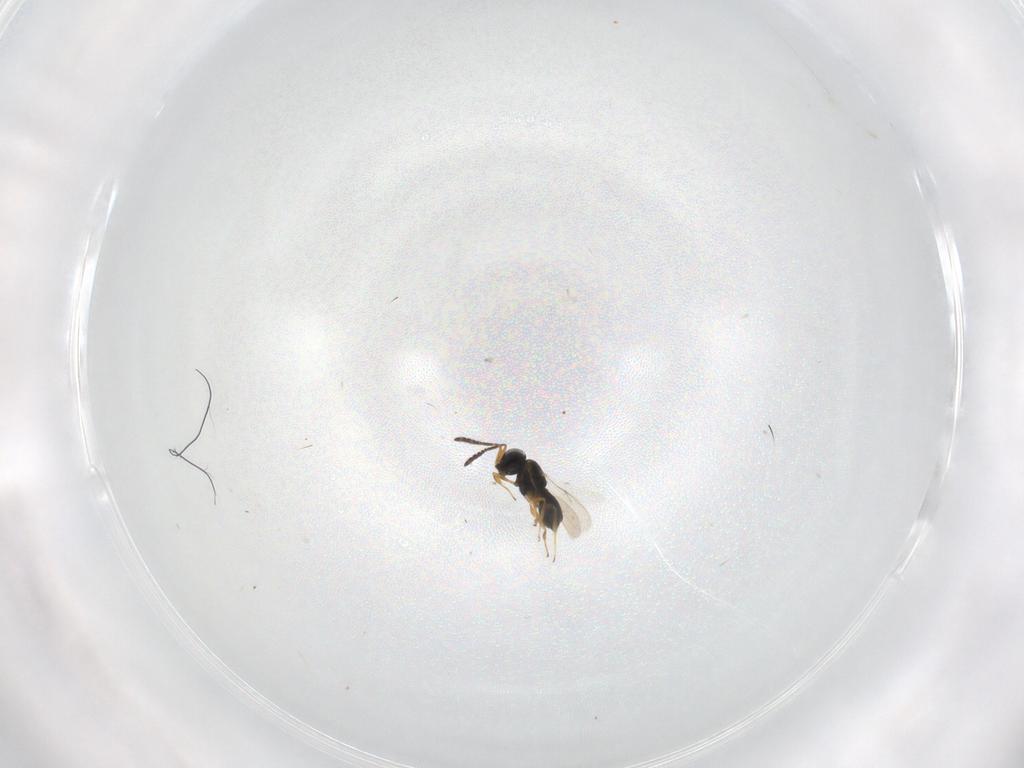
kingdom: Animalia
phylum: Arthropoda
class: Insecta
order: Hymenoptera
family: Scelionidae
